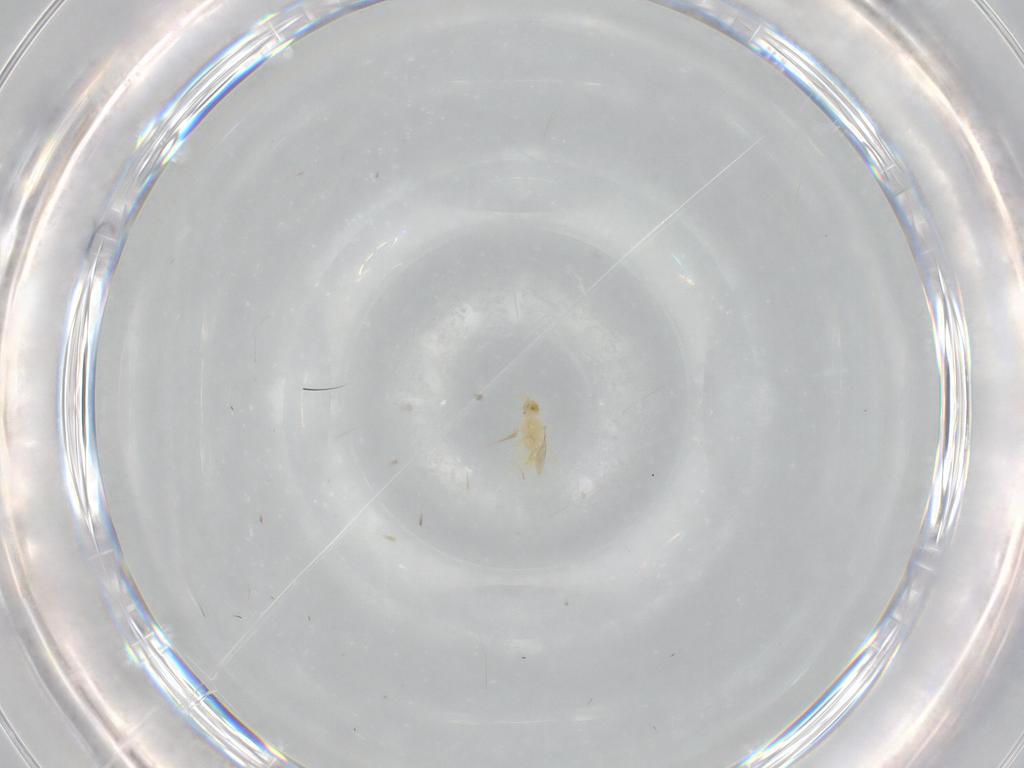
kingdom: Animalia
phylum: Arthropoda
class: Insecta
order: Hymenoptera
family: Aphelinidae
